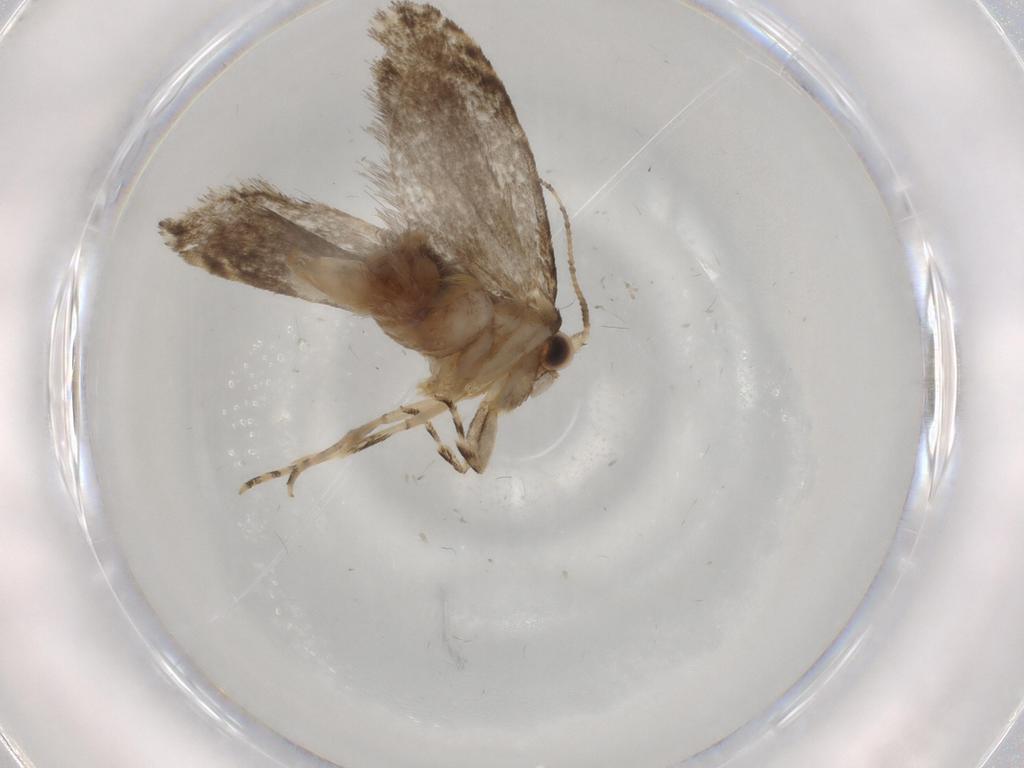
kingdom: Animalia
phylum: Arthropoda
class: Insecta
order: Lepidoptera
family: Tineidae
